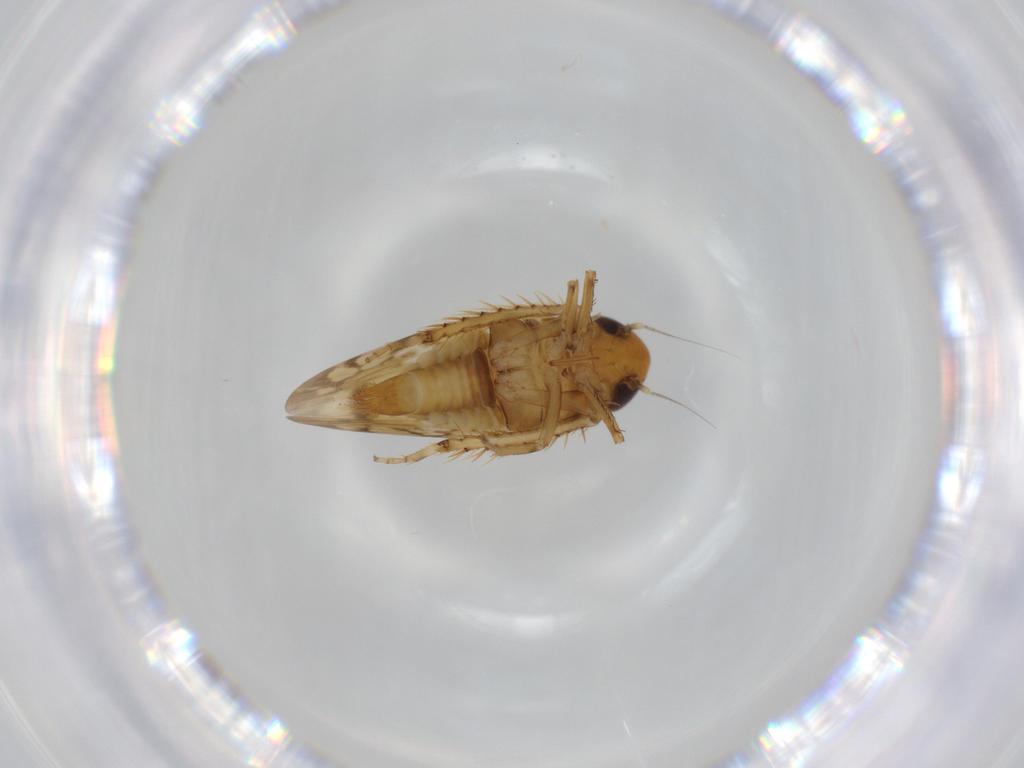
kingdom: Animalia
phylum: Arthropoda
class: Insecta
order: Hemiptera
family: Cicadellidae
